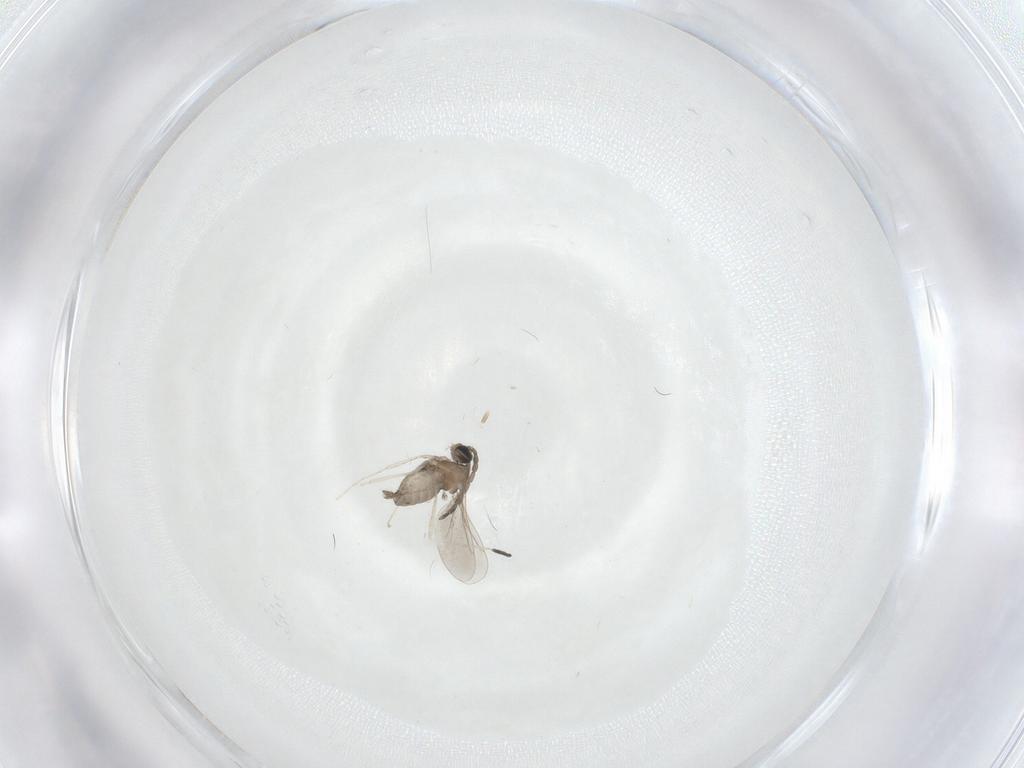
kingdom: Animalia
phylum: Arthropoda
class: Insecta
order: Diptera
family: Cecidomyiidae
